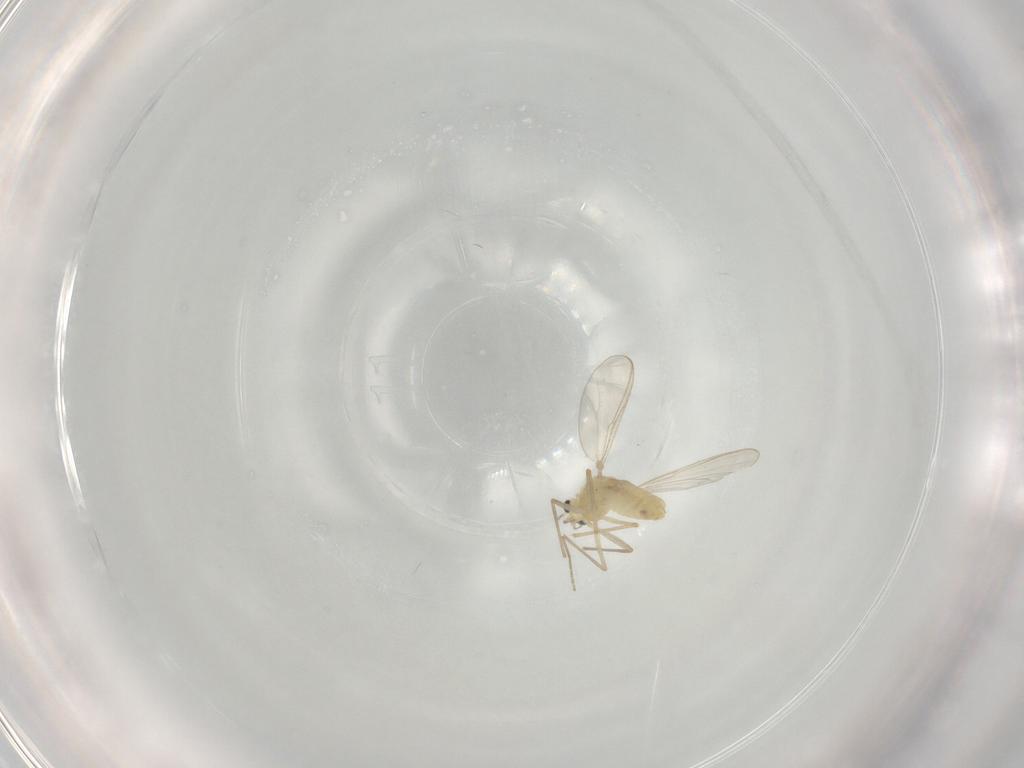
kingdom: Animalia
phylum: Arthropoda
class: Insecta
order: Diptera
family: Chironomidae
